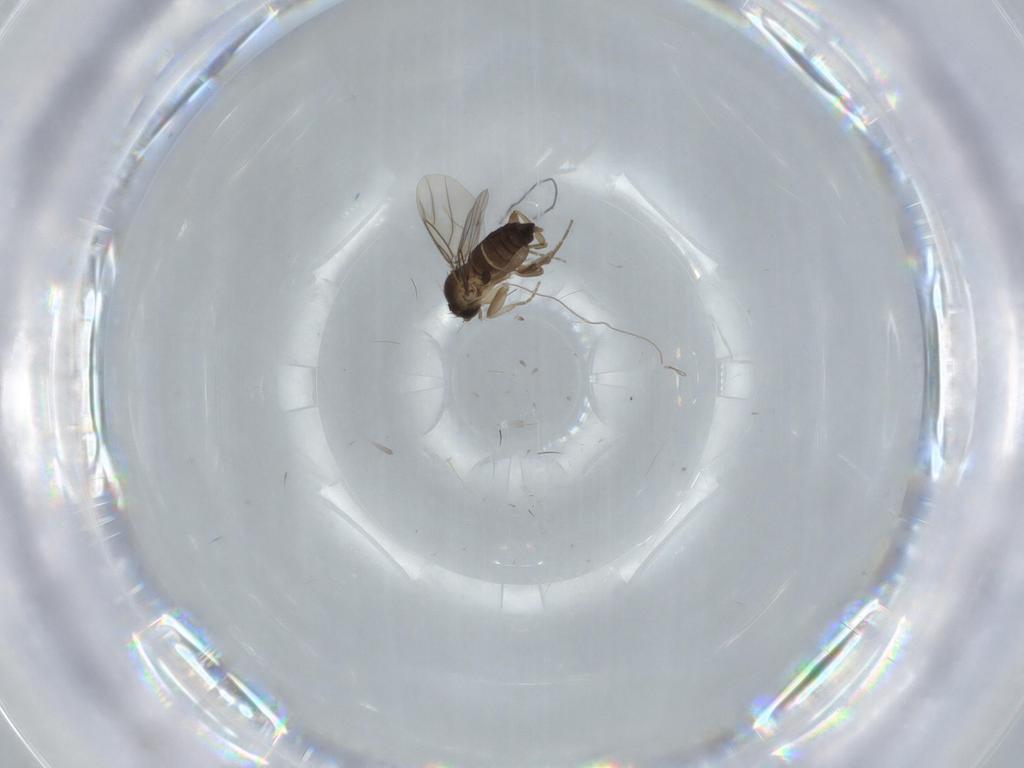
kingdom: Animalia
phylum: Arthropoda
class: Insecta
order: Diptera
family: Phoridae
